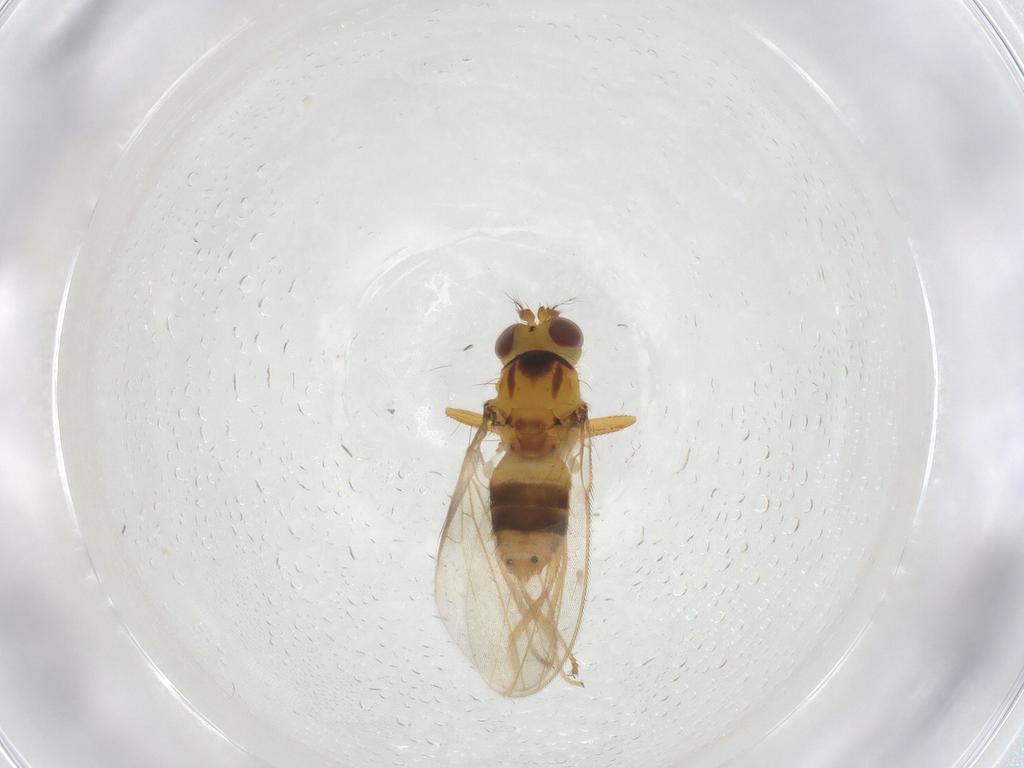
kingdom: Animalia
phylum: Arthropoda
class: Insecta
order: Diptera
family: Periscelididae
